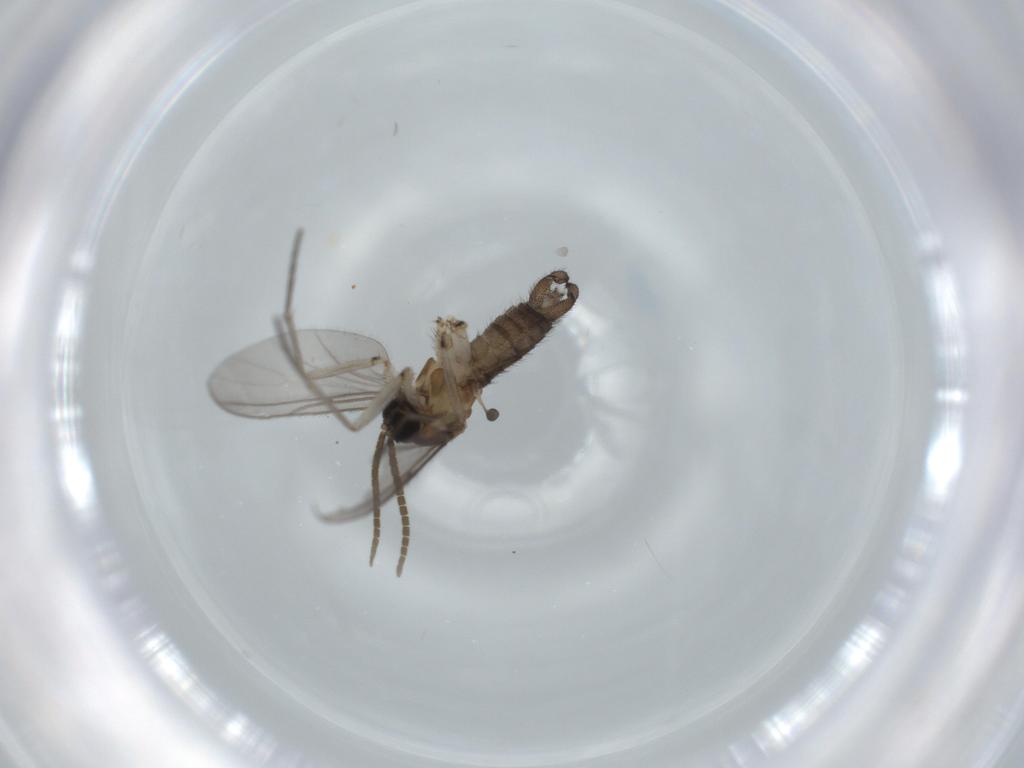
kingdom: Animalia
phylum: Arthropoda
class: Insecta
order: Diptera
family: Sciaridae
